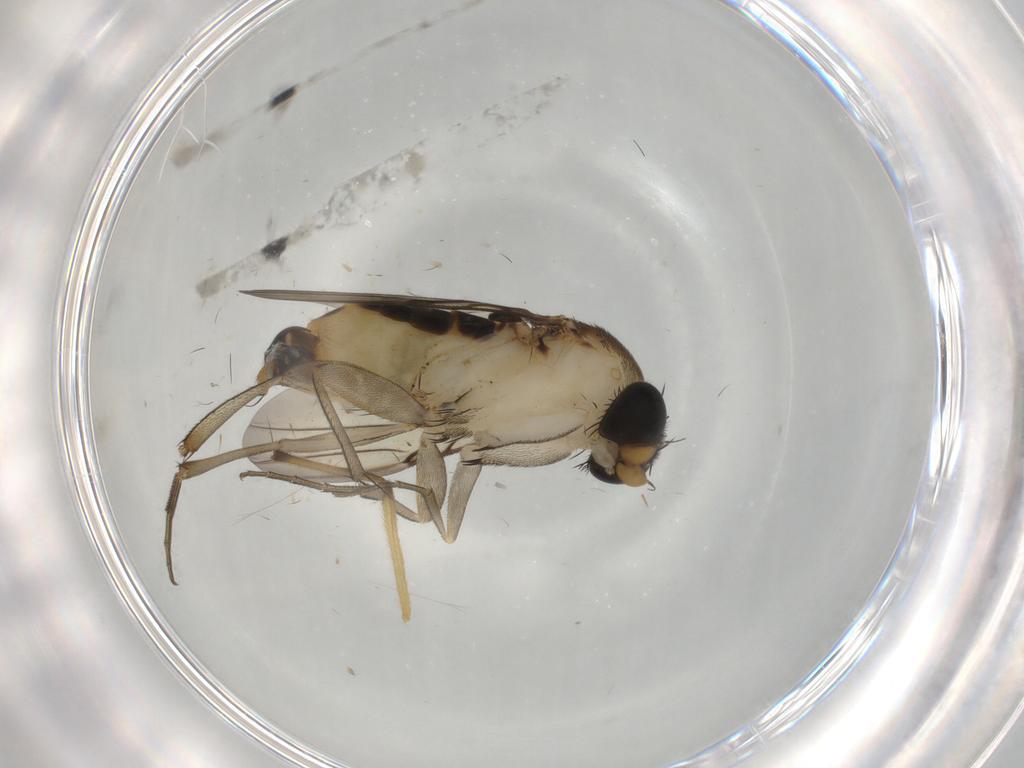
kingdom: Animalia
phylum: Arthropoda
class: Insecta
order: Diptera
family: Phoridae
